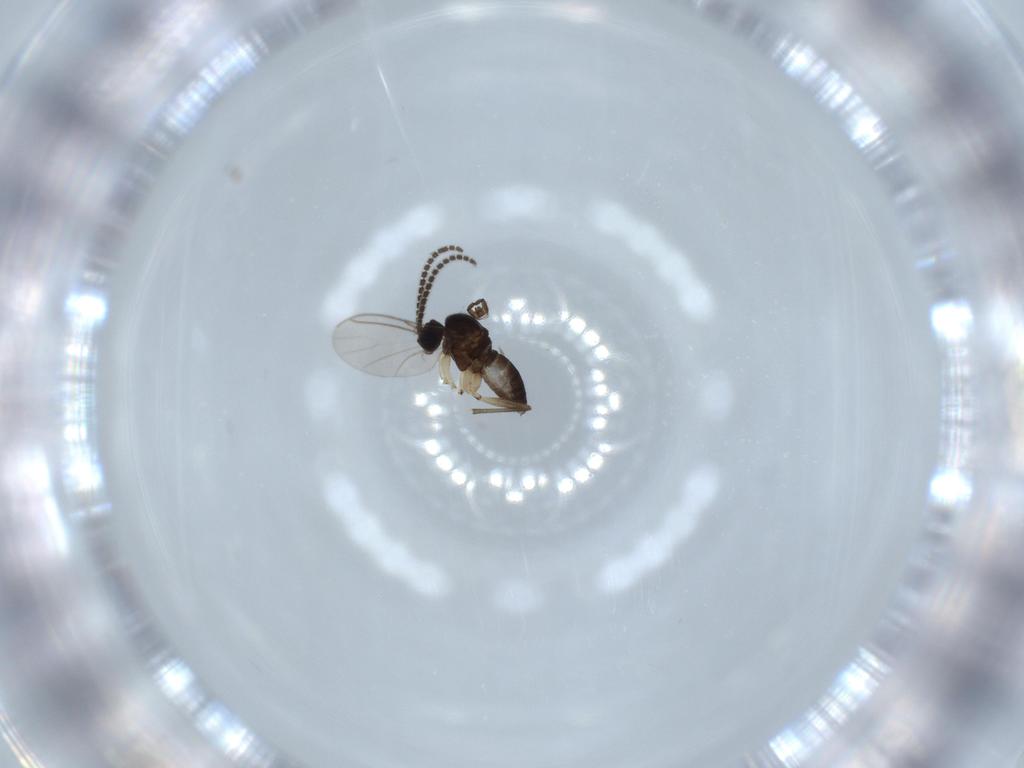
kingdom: Animalia
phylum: Arthropoda
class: Insecta
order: Diptera
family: Sciaridae
